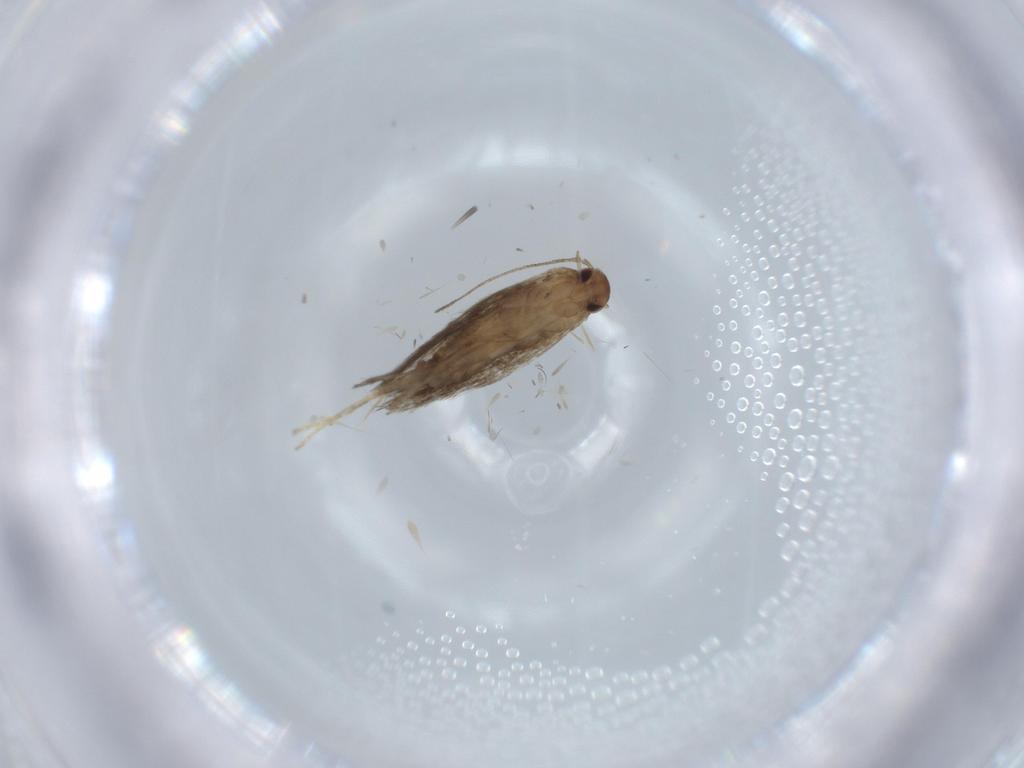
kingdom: Animalia
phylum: Arthropoda
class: Insecta
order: Lepidoptera
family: Cosmopterigidae
